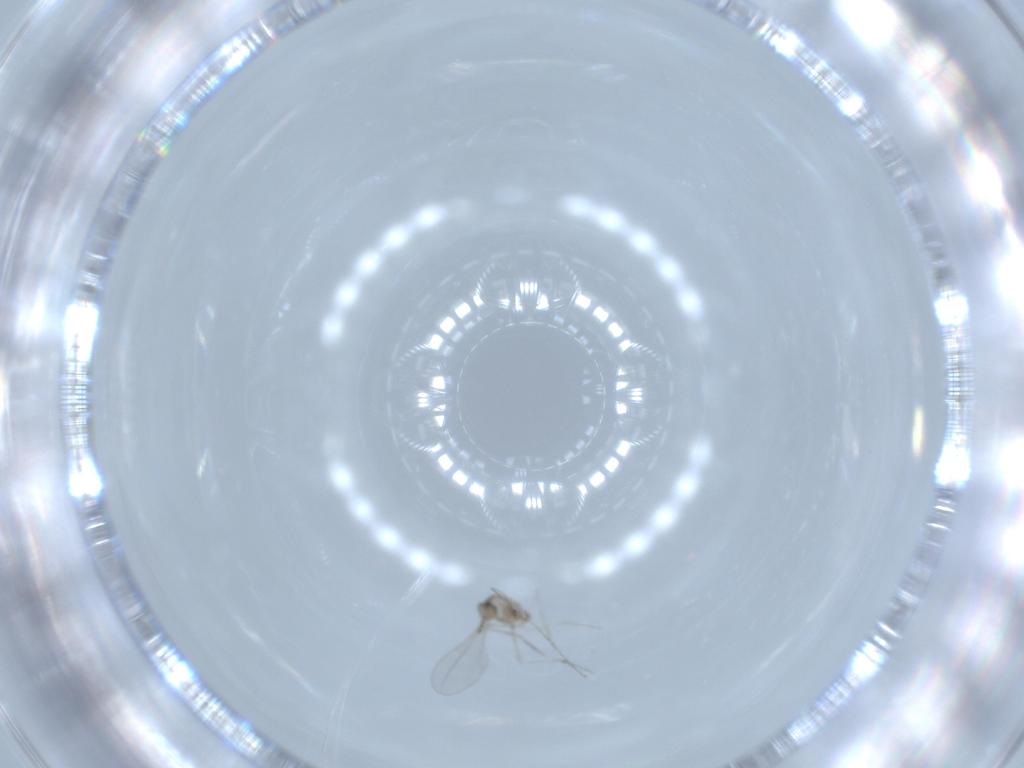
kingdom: Animalia
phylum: Arthropoda
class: Insecta
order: Diptera
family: Cecidomyiidae
